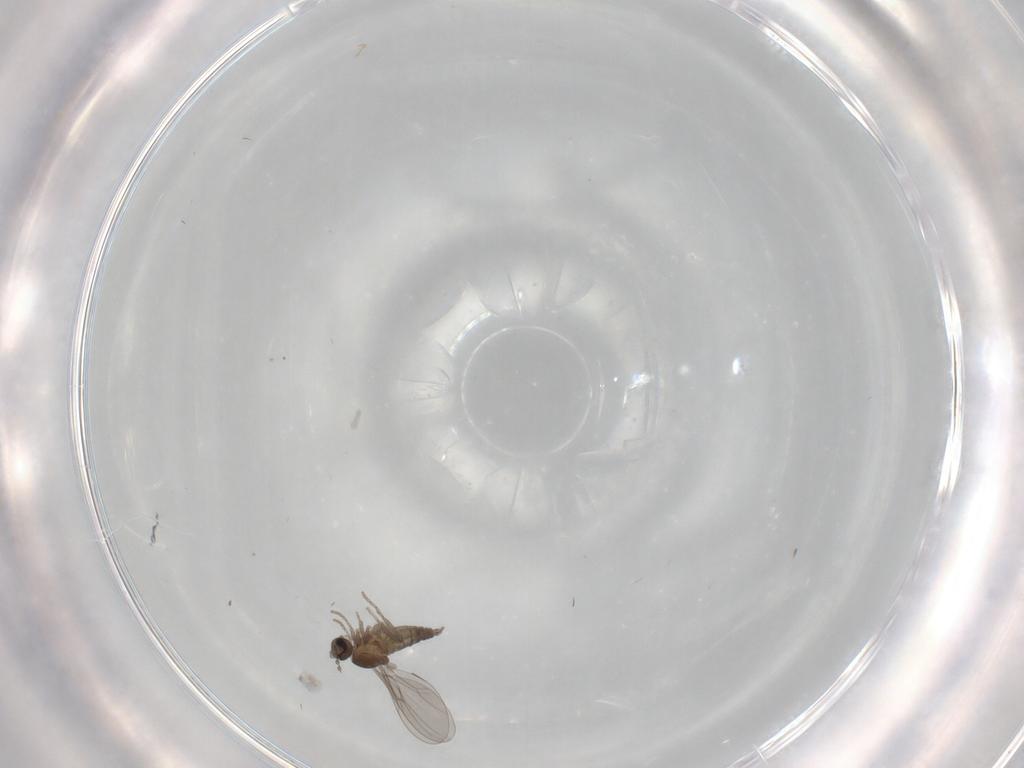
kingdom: Animalia
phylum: Arthropoda
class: Insecta
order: Diptera
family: Cecidomyiidae
